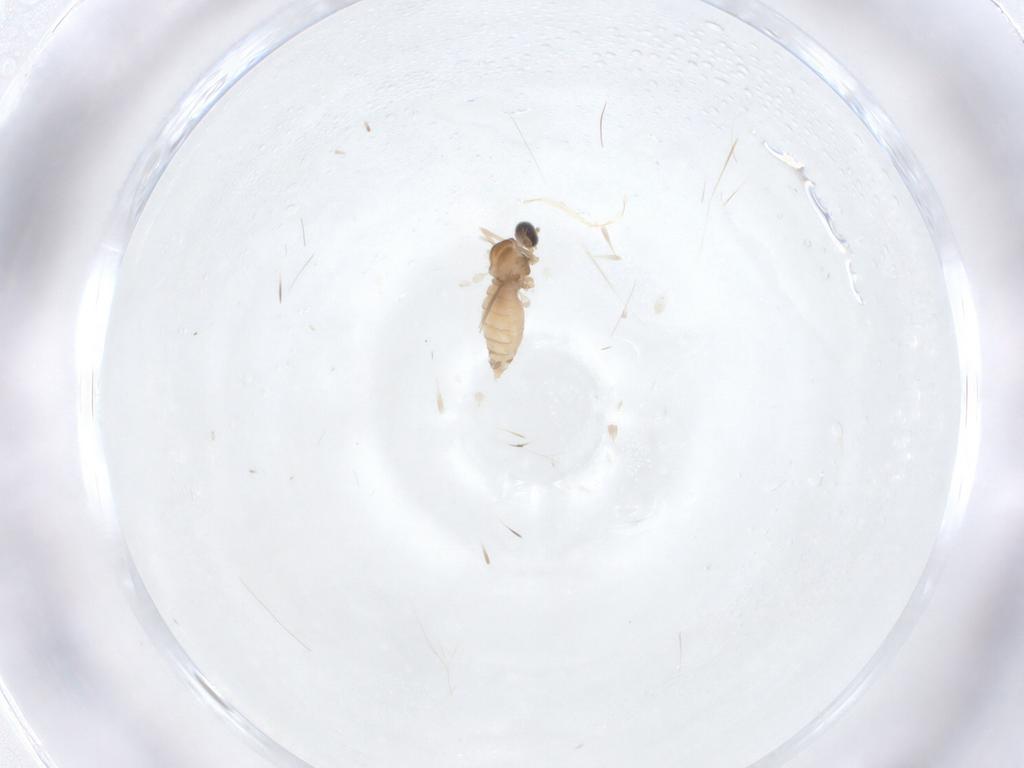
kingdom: Animalia
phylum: Arthropoda
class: Insecta
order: Diptera
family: Cecidomyiidae
